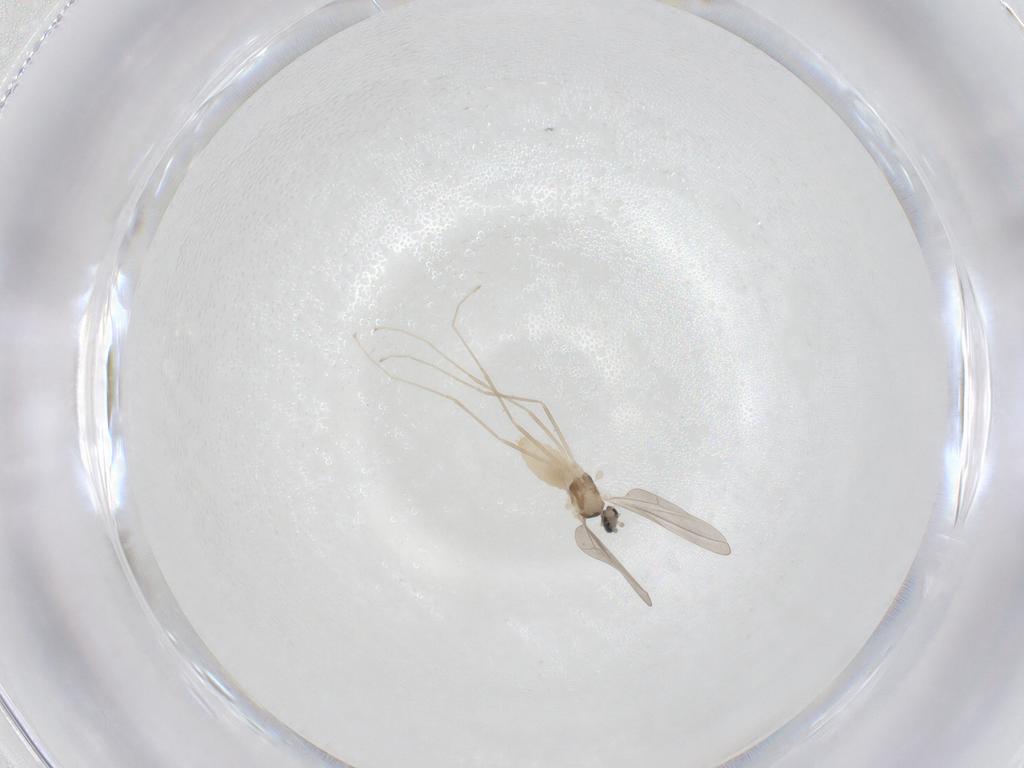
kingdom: Animalia
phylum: Arthropoda
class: Insecta
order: Diptera
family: Cecidomyiidae
